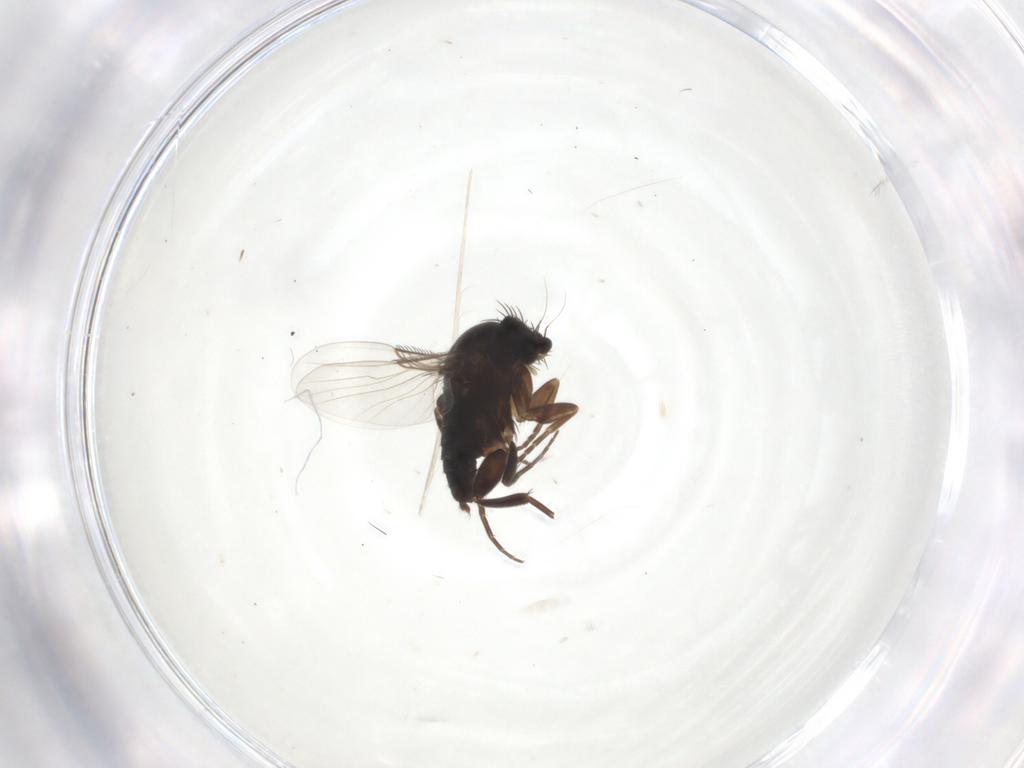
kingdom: Animalia
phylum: Arthropoda
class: Insecta
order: Diptera
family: Phoridae
